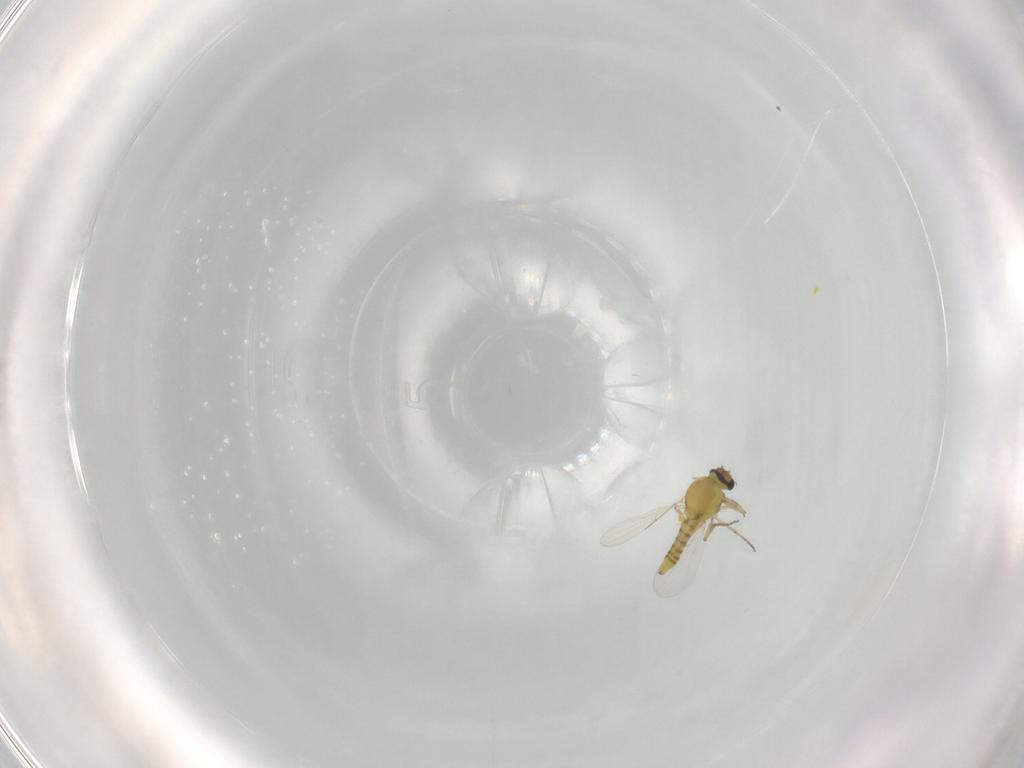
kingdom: Animalia
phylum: Arthropoda
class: Insecta
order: Diptera
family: Ceratopogonidae
